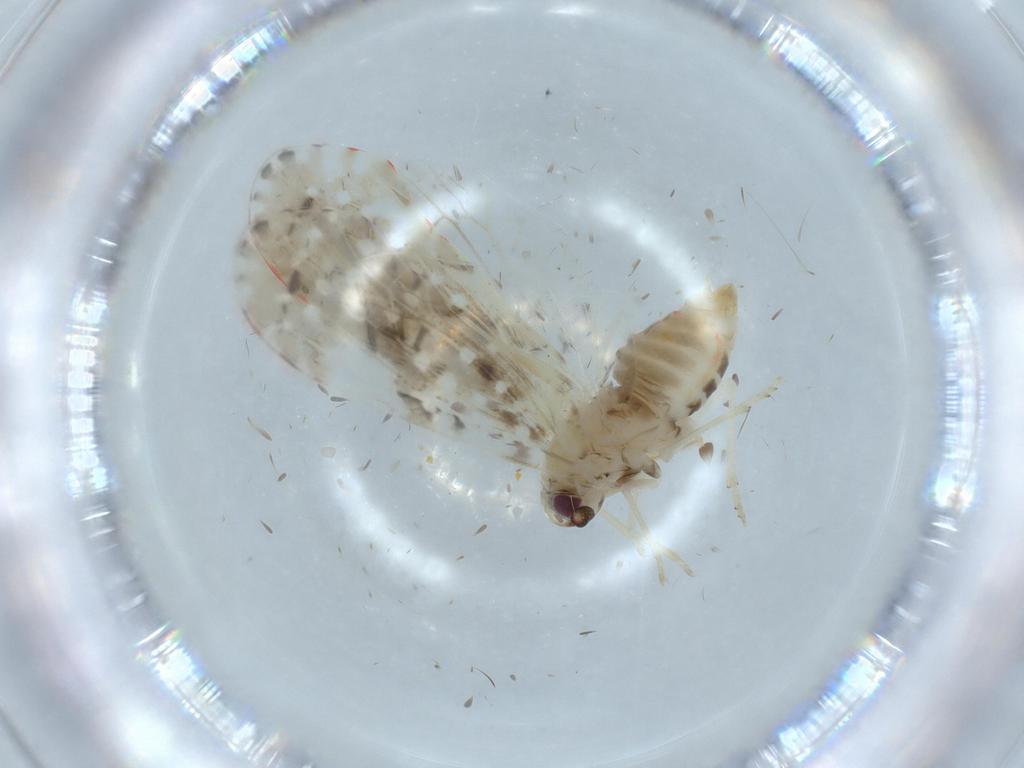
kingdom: Animalia
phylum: Arthropoda
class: Insecta
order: Hemiptera
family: Derbidae
